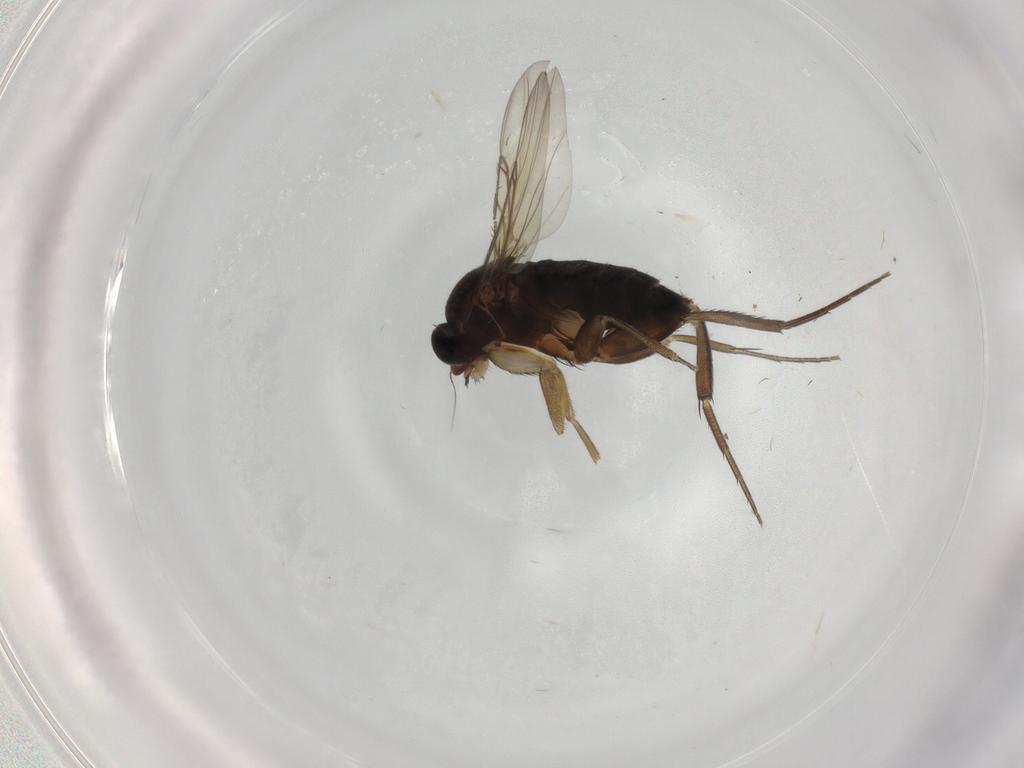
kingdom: Animalia
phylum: Arthropoda
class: Insecta
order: Diptera
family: Phoridae
